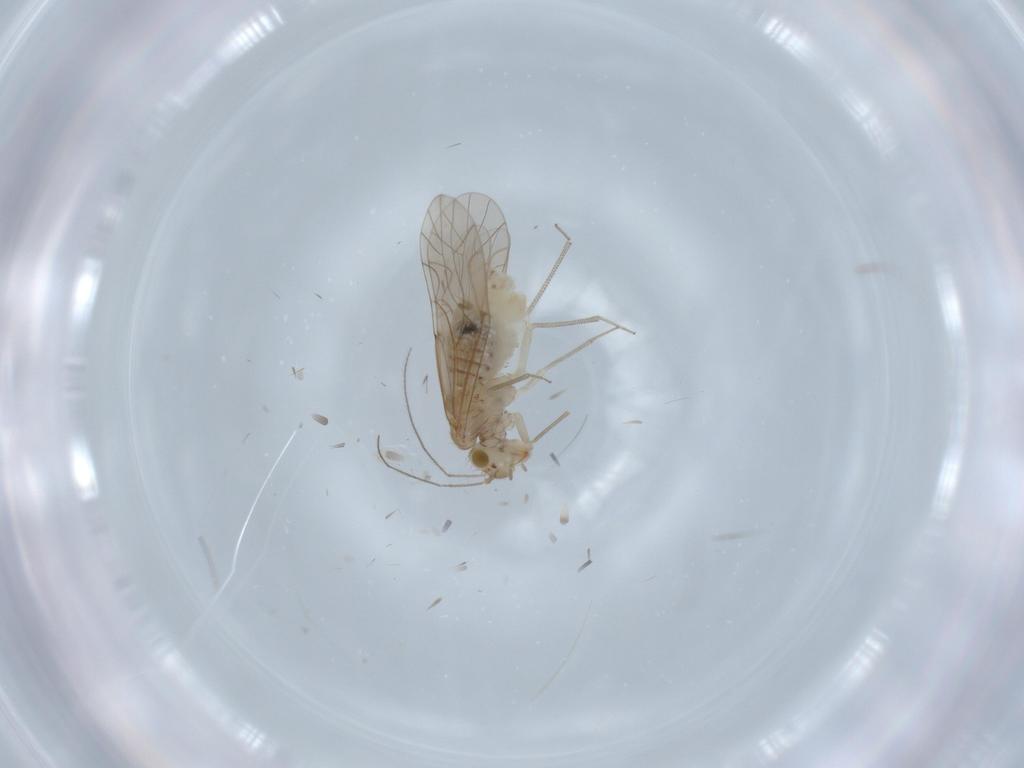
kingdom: Animalia
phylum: Arthropoda
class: Insecta
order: Psocodea
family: Lachesillidae
